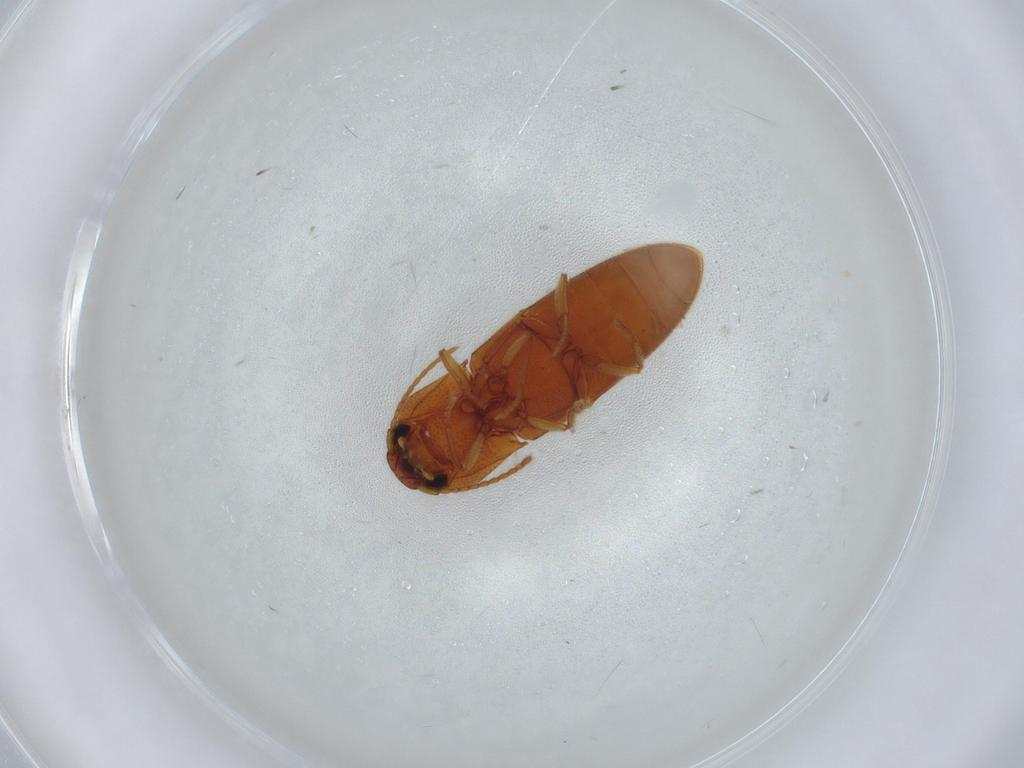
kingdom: Animalia
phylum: Arthropoda
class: Insecta
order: Coleoptera
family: Elateridae
